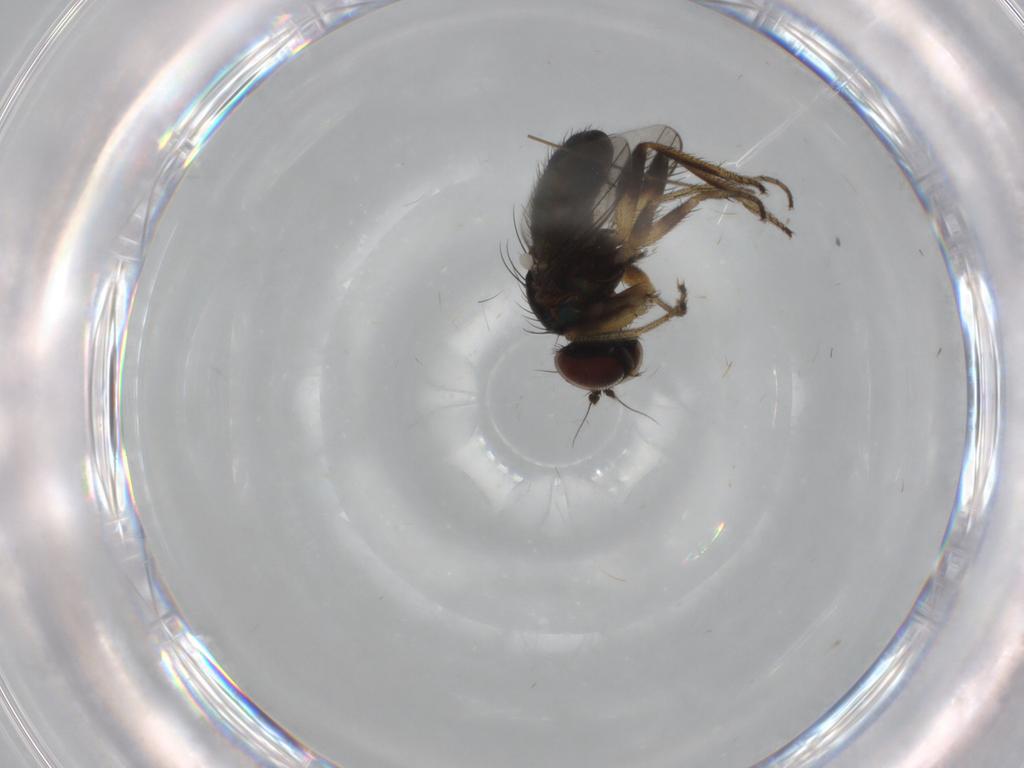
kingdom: Animalia
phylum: Arthropoda
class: Insecta
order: Diptera
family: Dolichopodidae
